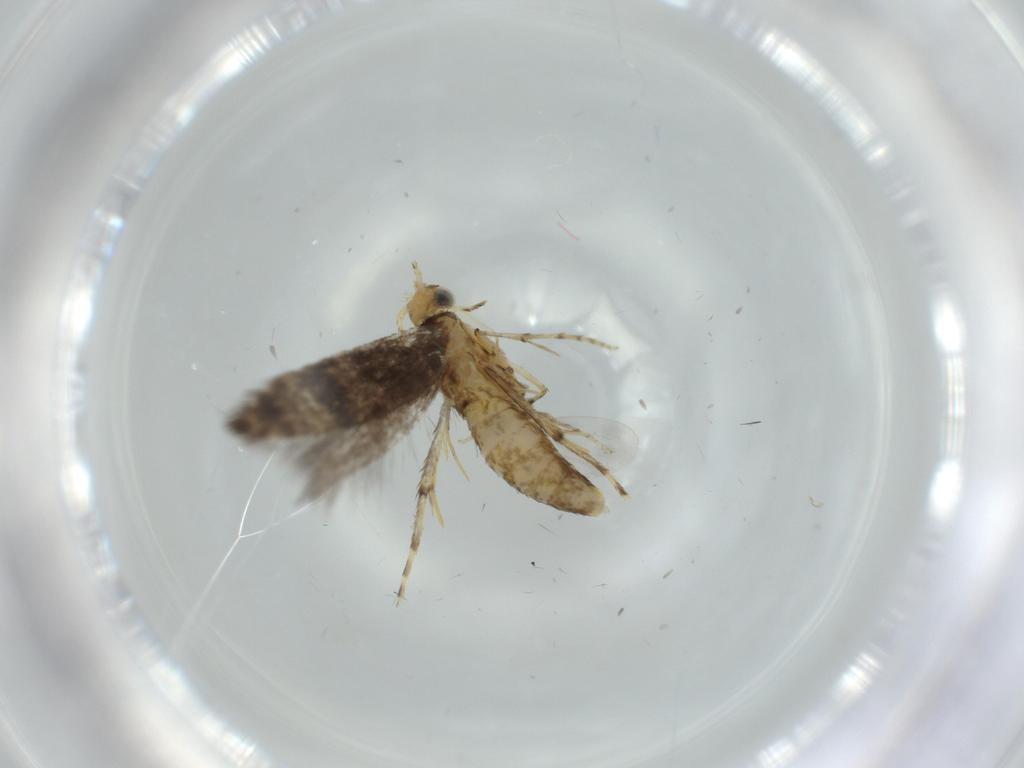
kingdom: Animalia
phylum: Arthropoda
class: Insecta
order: Lepidoptera
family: Argyresthiidae
